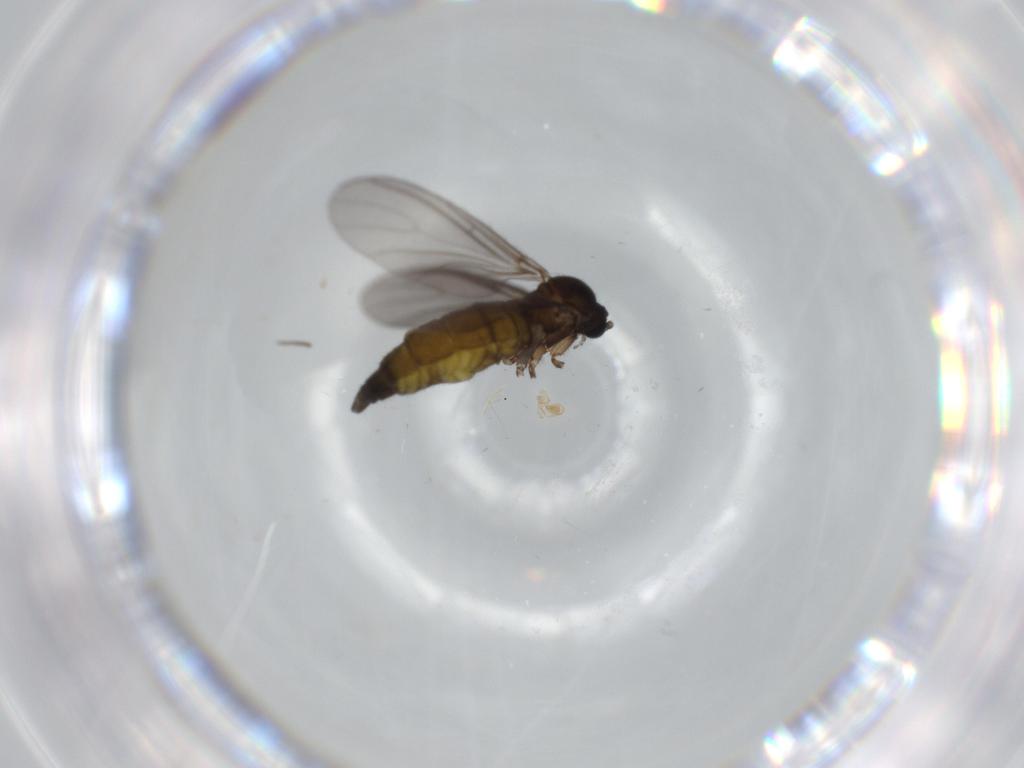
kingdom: Animalia
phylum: Arthropoda
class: Insecta
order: Diptera
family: Sciaridae
